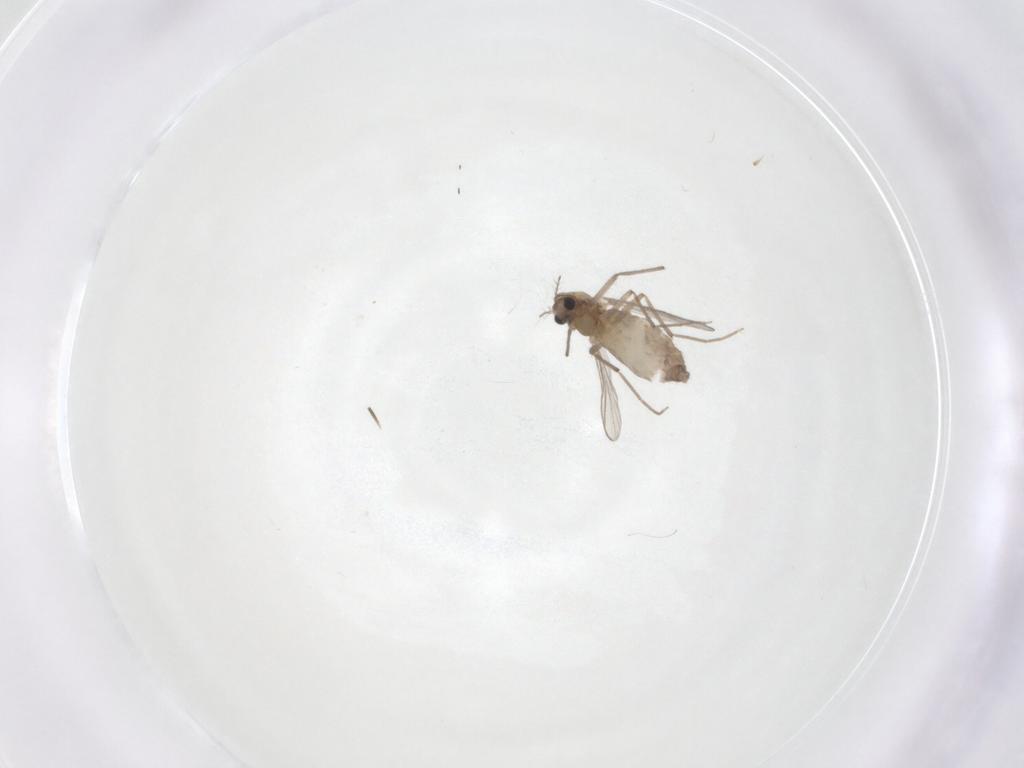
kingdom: Animalia
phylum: Arthropoda
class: Insecta
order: Diptera
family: Chironomidae
